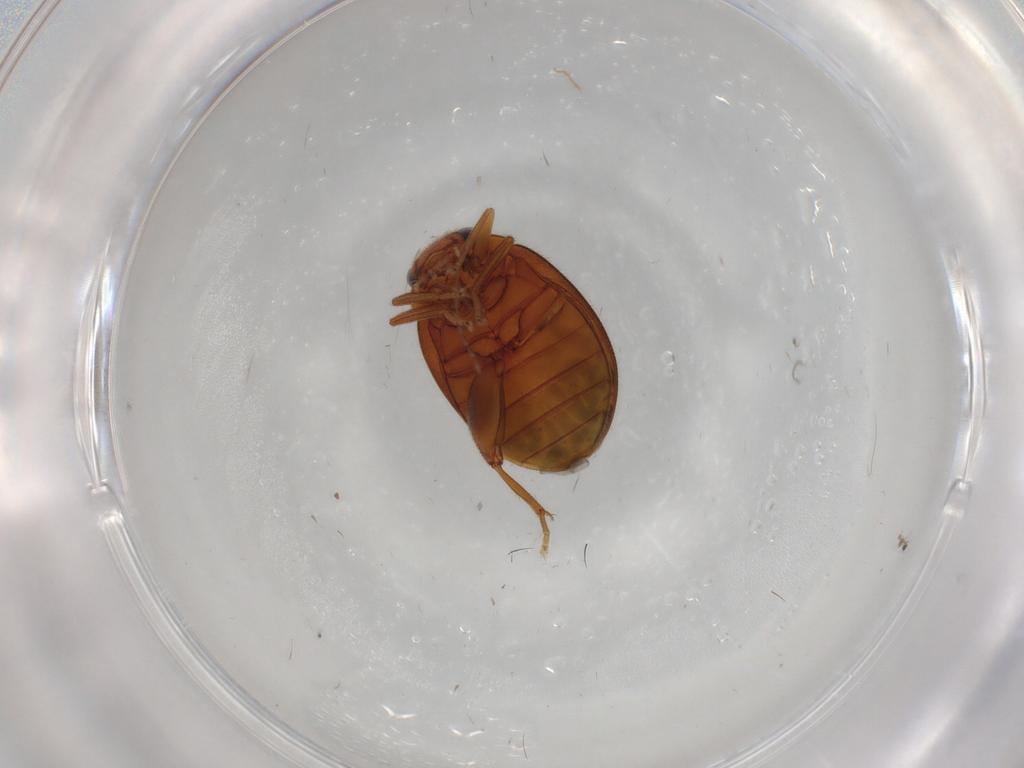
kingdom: Animalia
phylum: Arthropoda
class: Insecta
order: Coleoptera
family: Scirtidae
